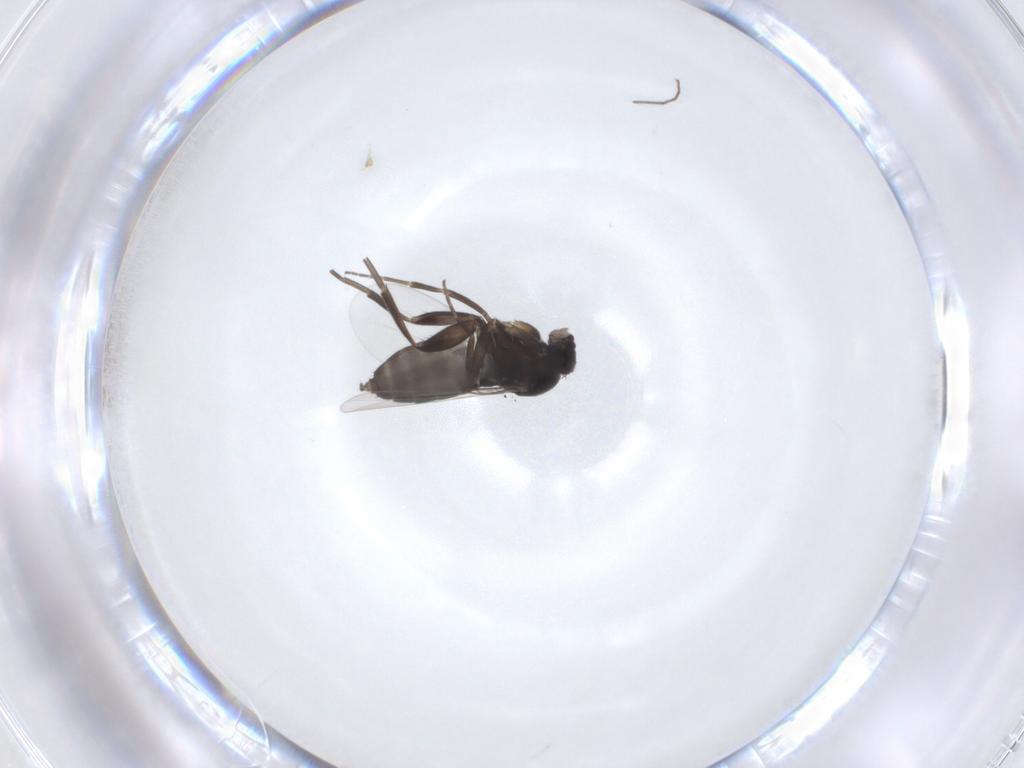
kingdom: Animalia
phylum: Arthropoda
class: Insecta
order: Diptera
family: Phoridae
